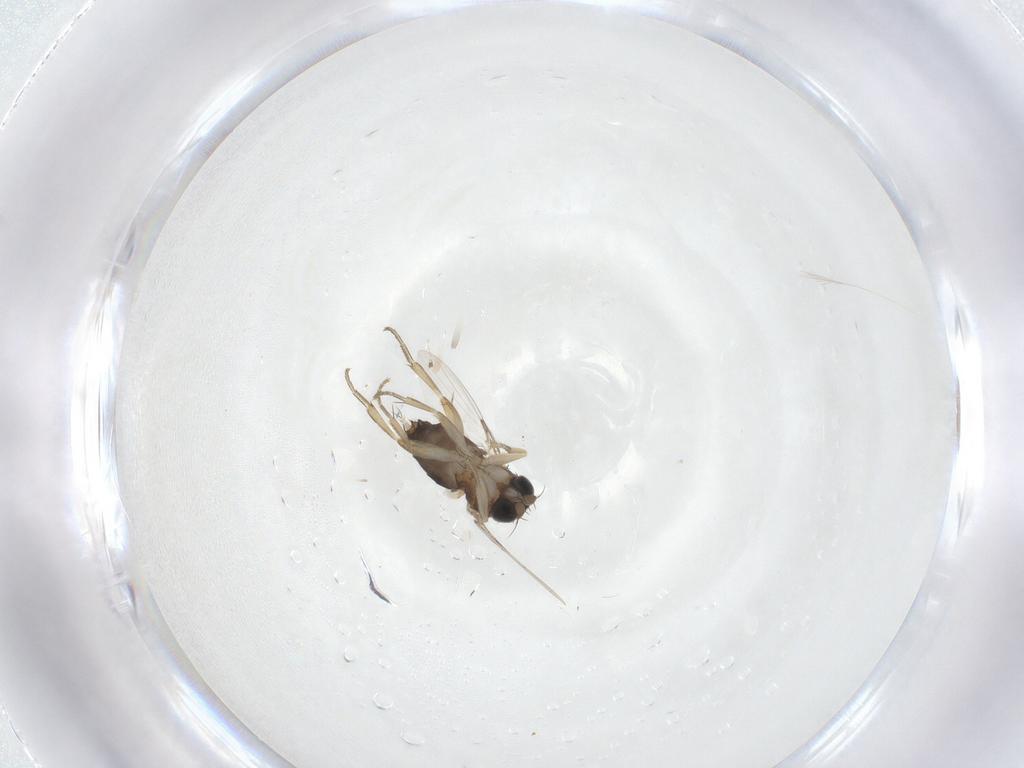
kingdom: Animalia
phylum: Arthropoda
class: Insecta
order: Diptera
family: Phoridae
